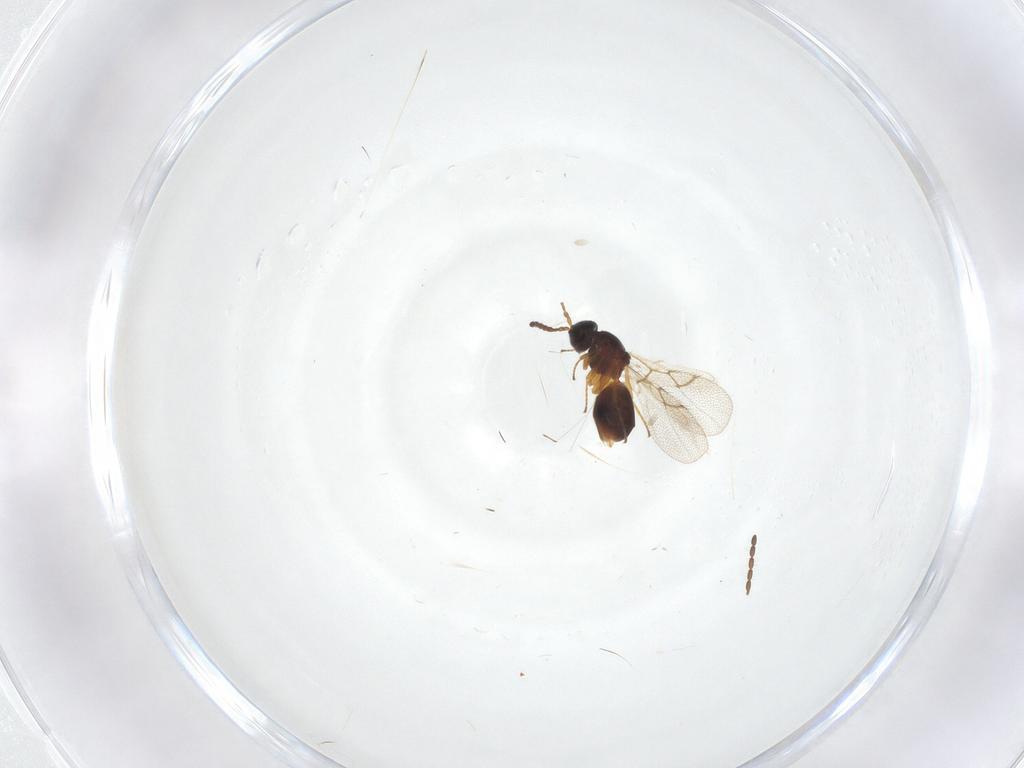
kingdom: Animalia
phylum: Arthropoda
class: Insecta
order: Hymenoptera
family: Figitidae
